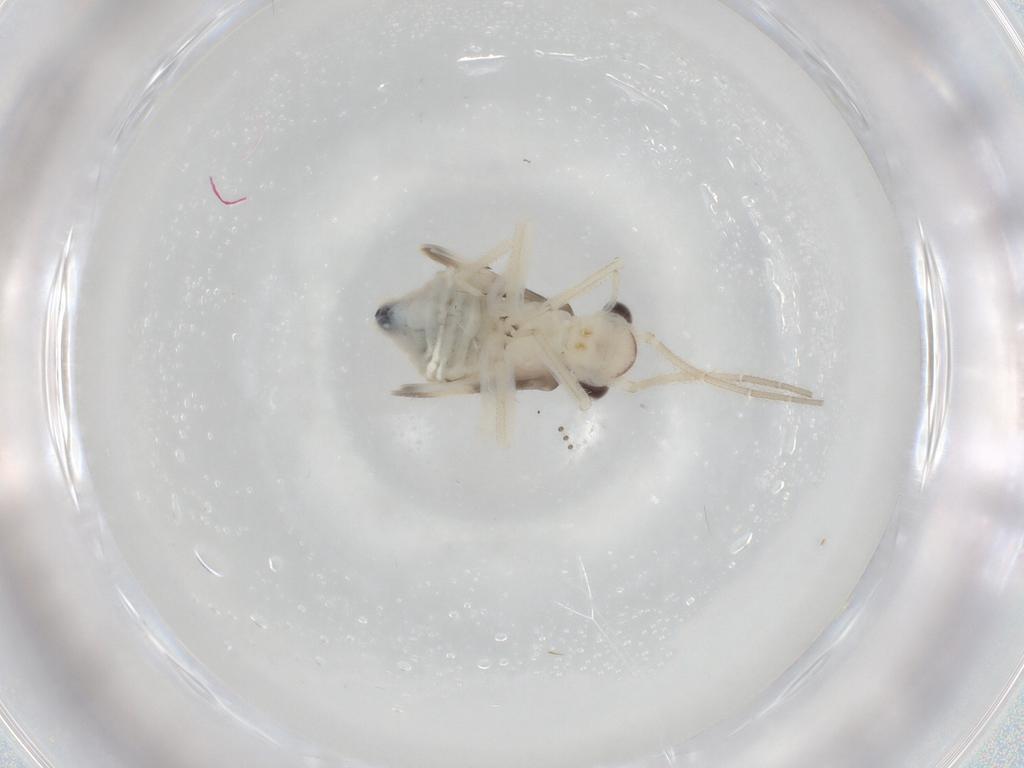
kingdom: Animalia
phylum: Arthropoda
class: Insecta
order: Psocodea
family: Amphipsocidae
